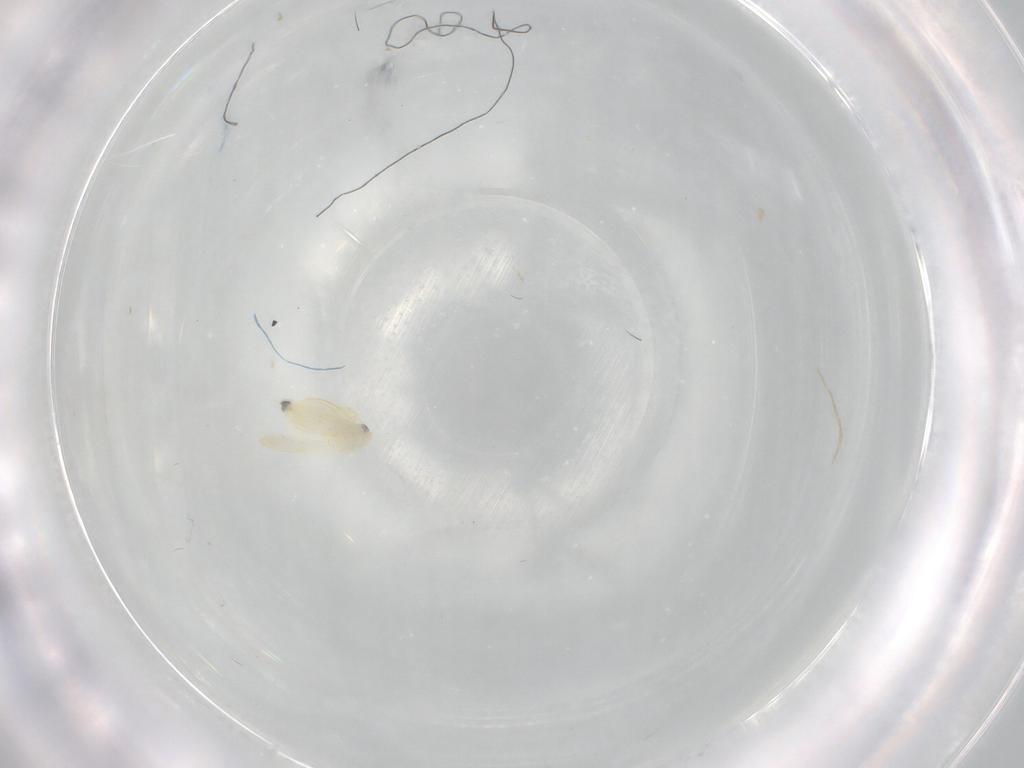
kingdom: Animalia
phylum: Arthropoda
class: Insecta
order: Hemiptera
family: Aleyrodidae
